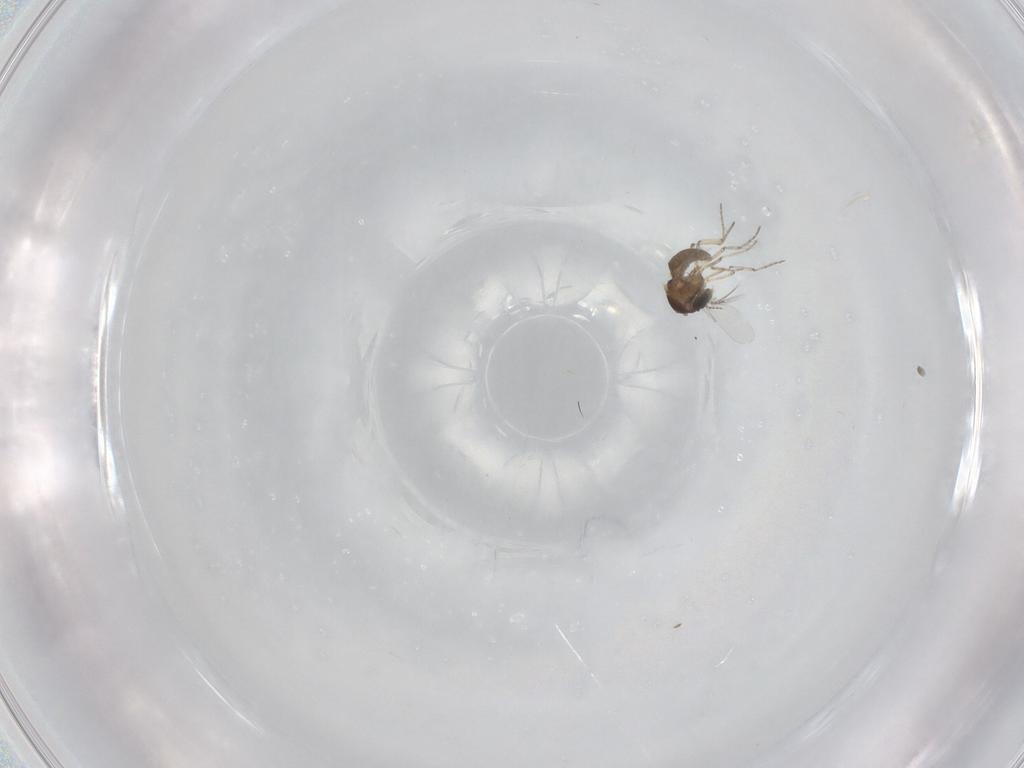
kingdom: Animalia
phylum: Arthropoda
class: Insecta
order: Diptera
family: Ceratopogonidae
